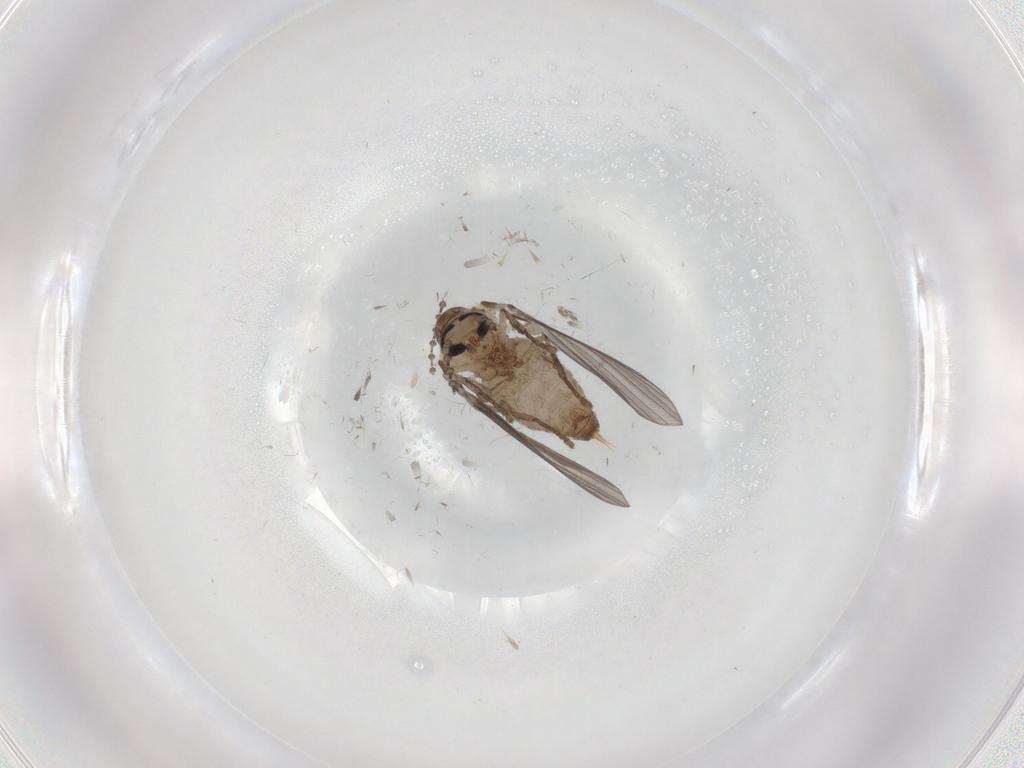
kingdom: Animalia
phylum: Arthropoda
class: Insecta
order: Diptera
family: Psychodidae
